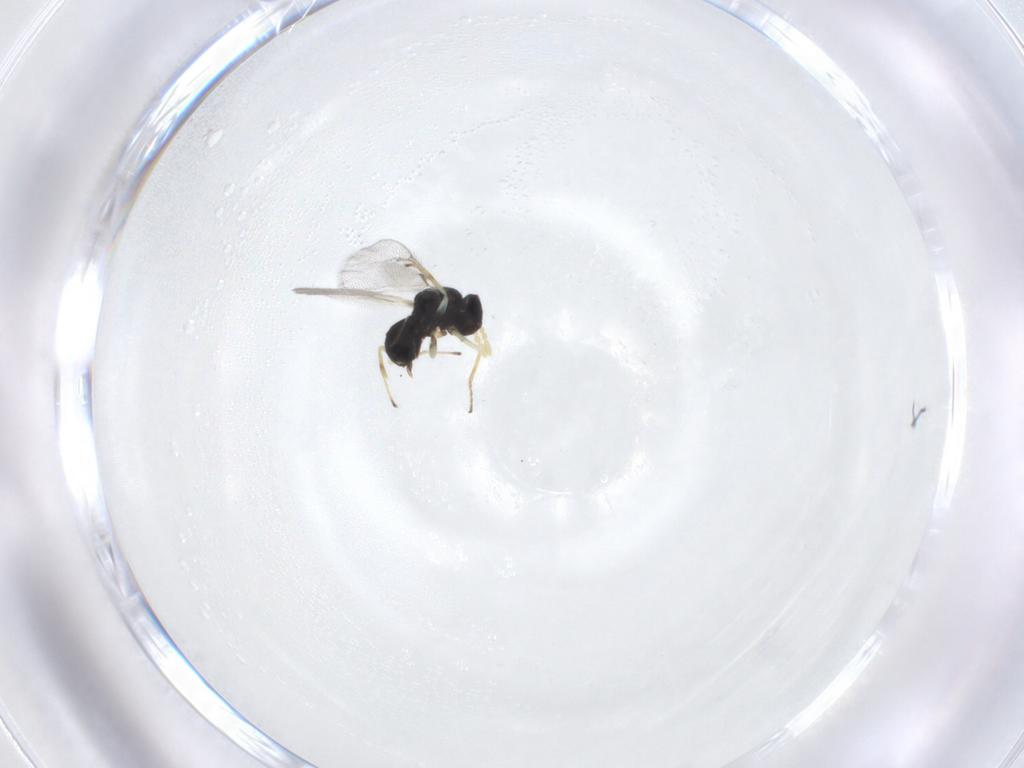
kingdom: Animalia
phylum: Arthropoda
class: Insecta
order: Hymenoptera
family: Eulophidae
